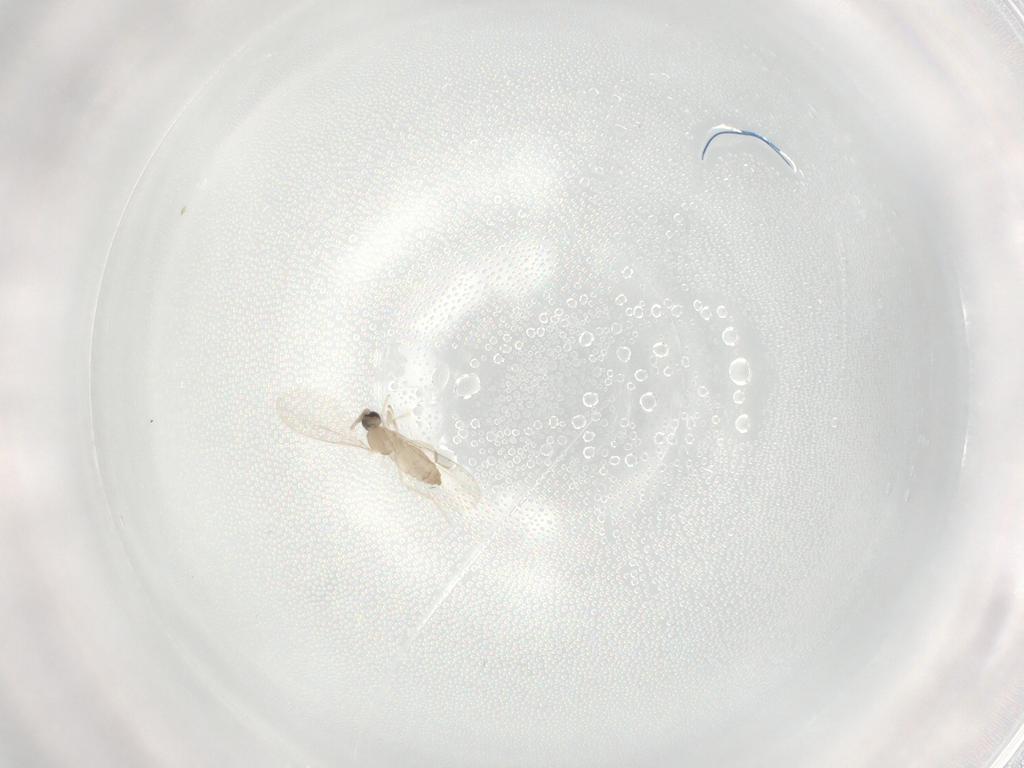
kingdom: Animalia
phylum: Arthropoda
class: Insecta
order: Diptera
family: Cecidomyiidae
